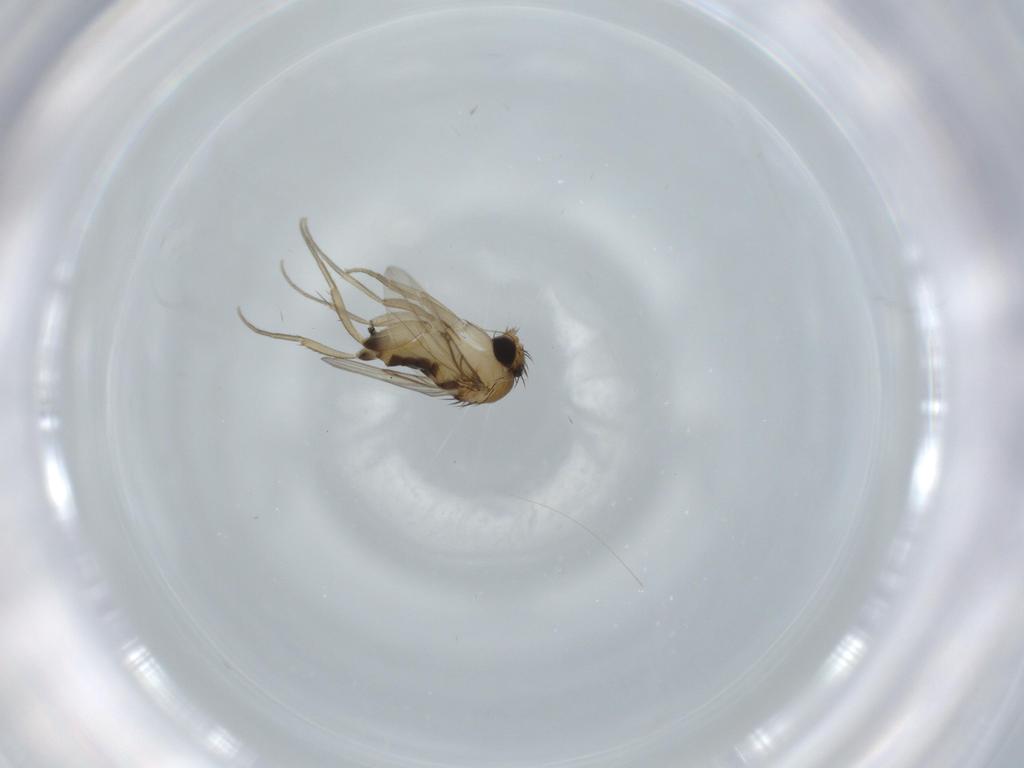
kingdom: Animalia
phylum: Arthropoda
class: Insecta
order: Diptera
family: Phoridae
